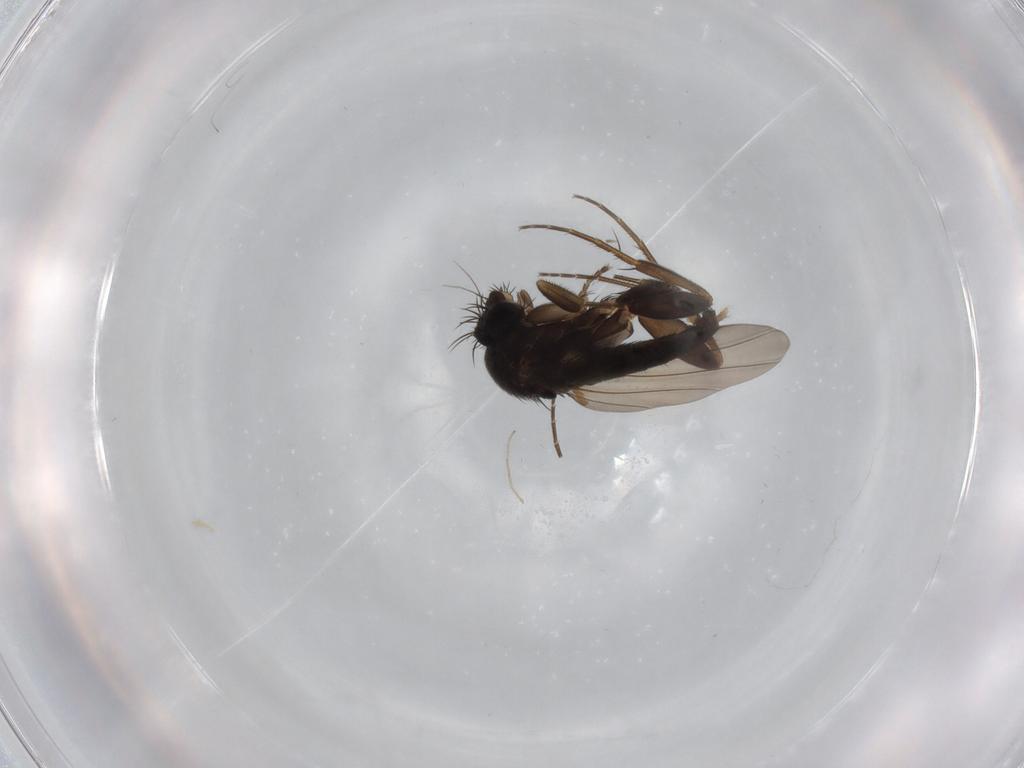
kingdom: Animalia
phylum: Arthropoda
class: Insecta
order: Diptera
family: Phoridae
